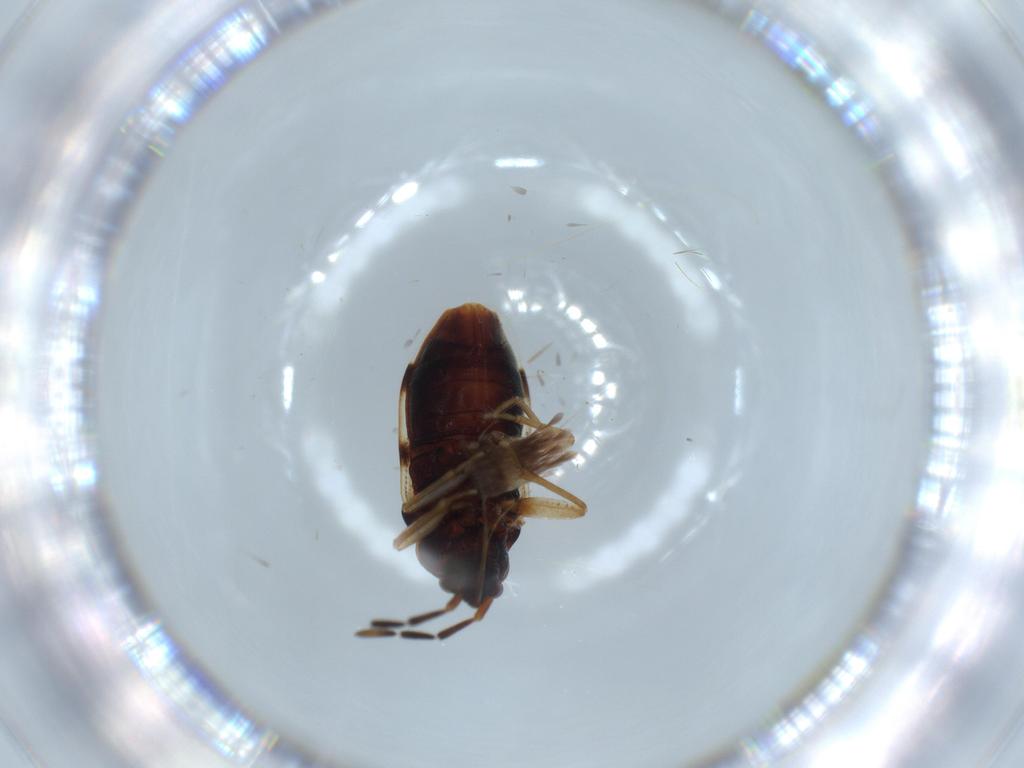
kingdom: Animalia
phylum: Arthropoda
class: Insecta
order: Hemiptera
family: Rhyparochromidae
